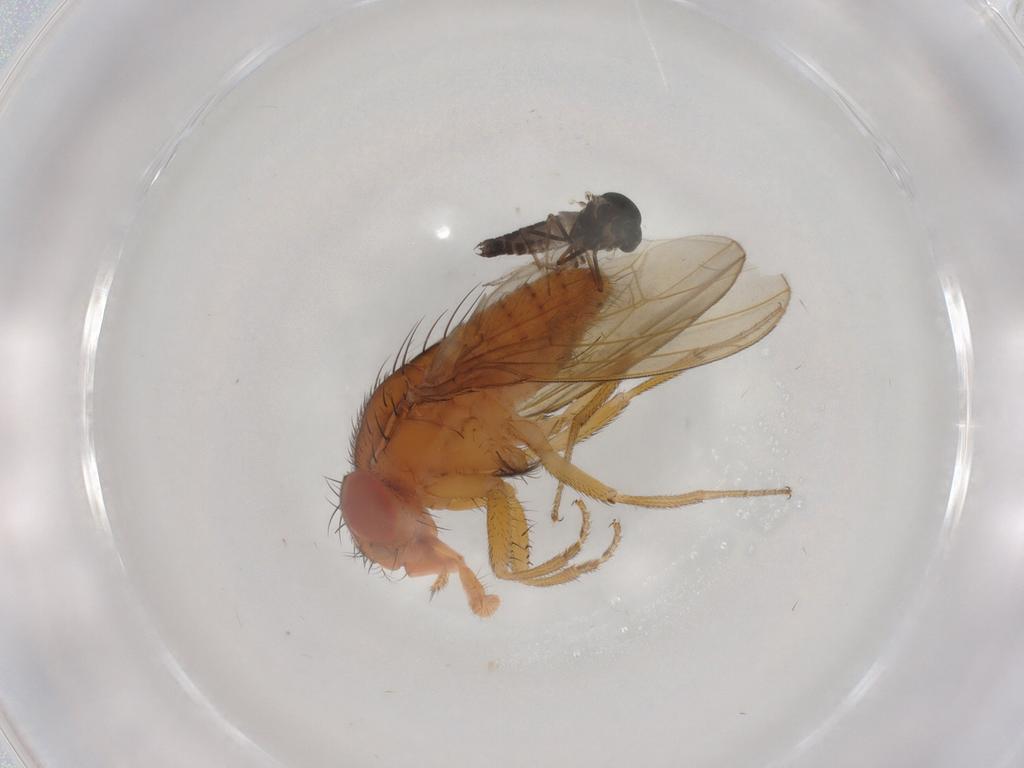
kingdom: Animalia
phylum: Arthropoda
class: Insecta
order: Diptera
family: Drosophilidae
